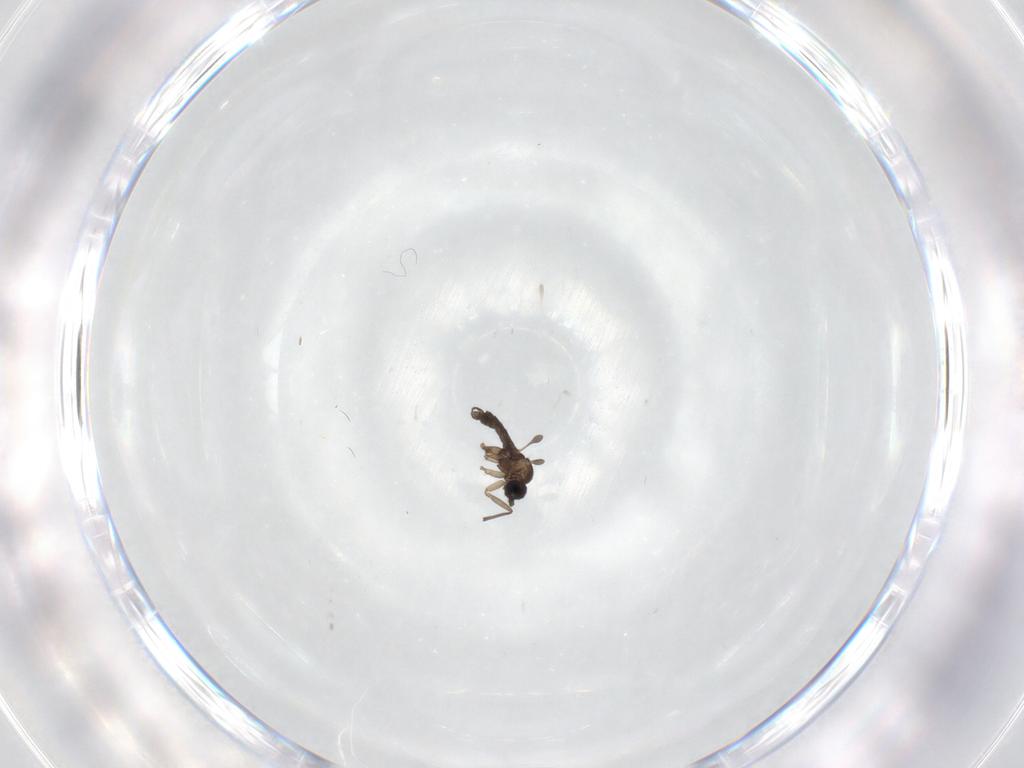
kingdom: Animalia
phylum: Arthropoda
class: Insecta
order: Diptera
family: Sciaridae
